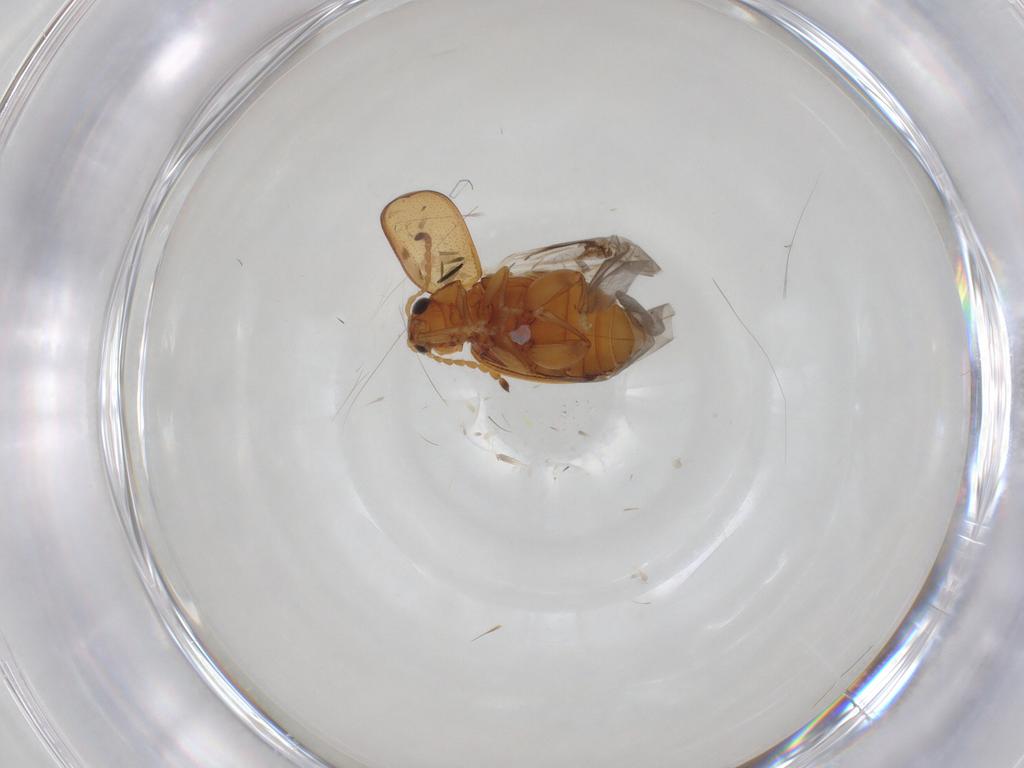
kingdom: Animalia
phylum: Arthropoda
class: Insecta
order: Coleoptera
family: Chrysomelidae
